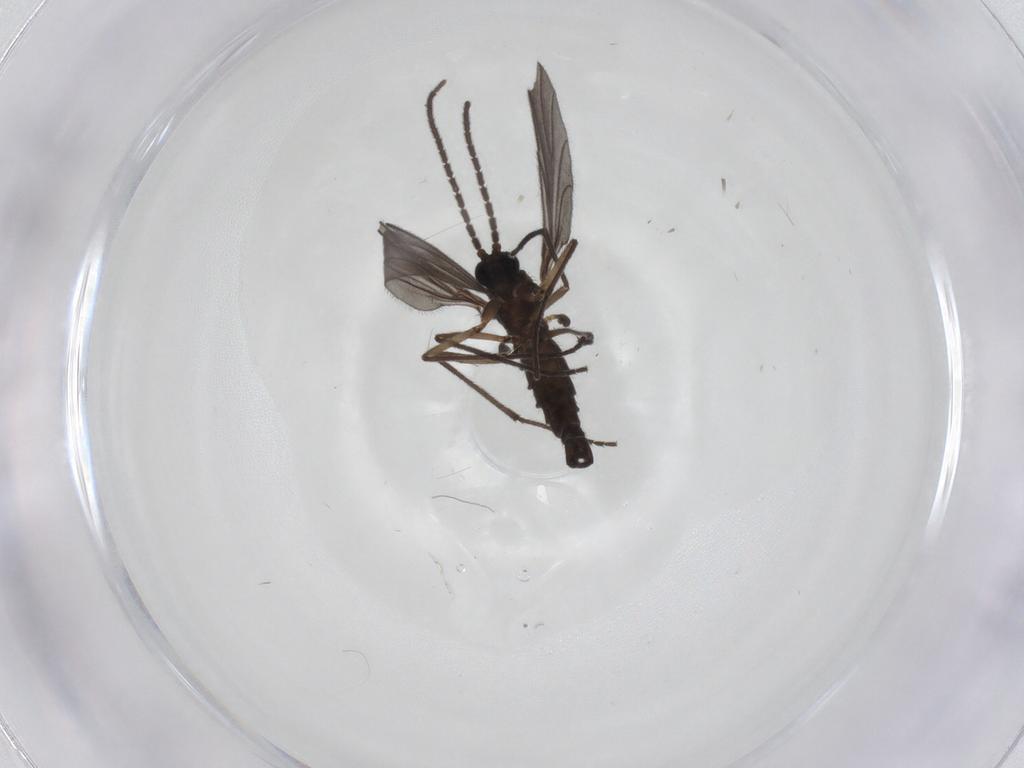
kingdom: Animalia
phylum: Arthropoda
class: Insecta
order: Diptera
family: Sciaridae
